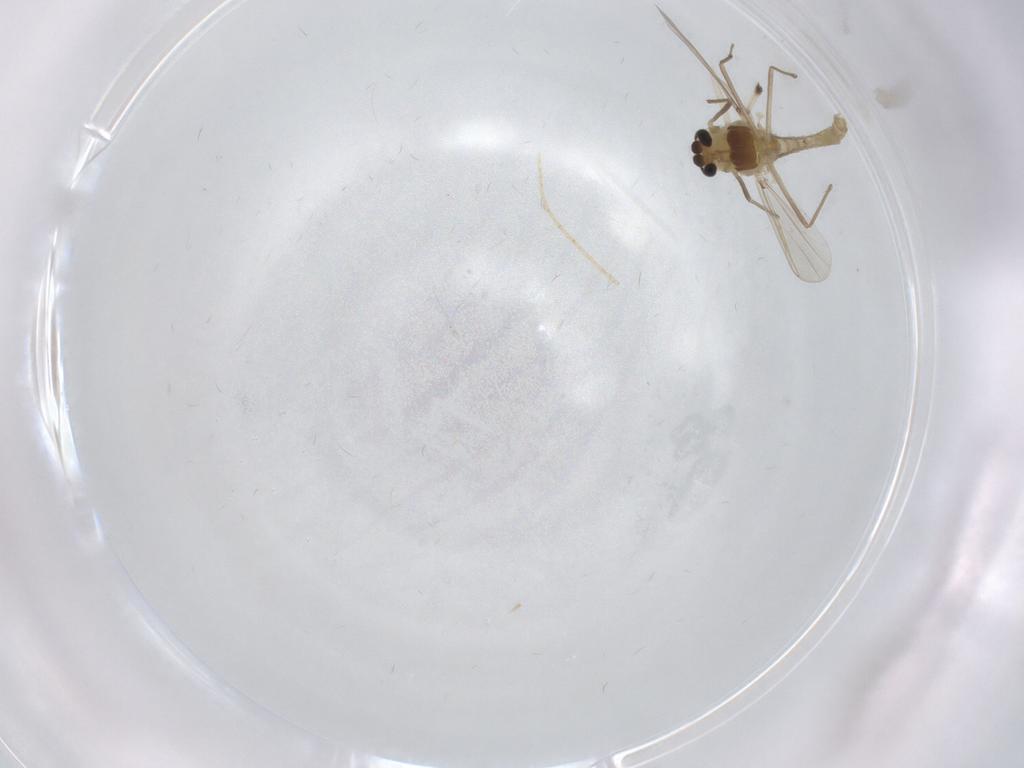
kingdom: Animalia
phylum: Arthropoda
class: Insecta
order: Diptera
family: Chironomidae
